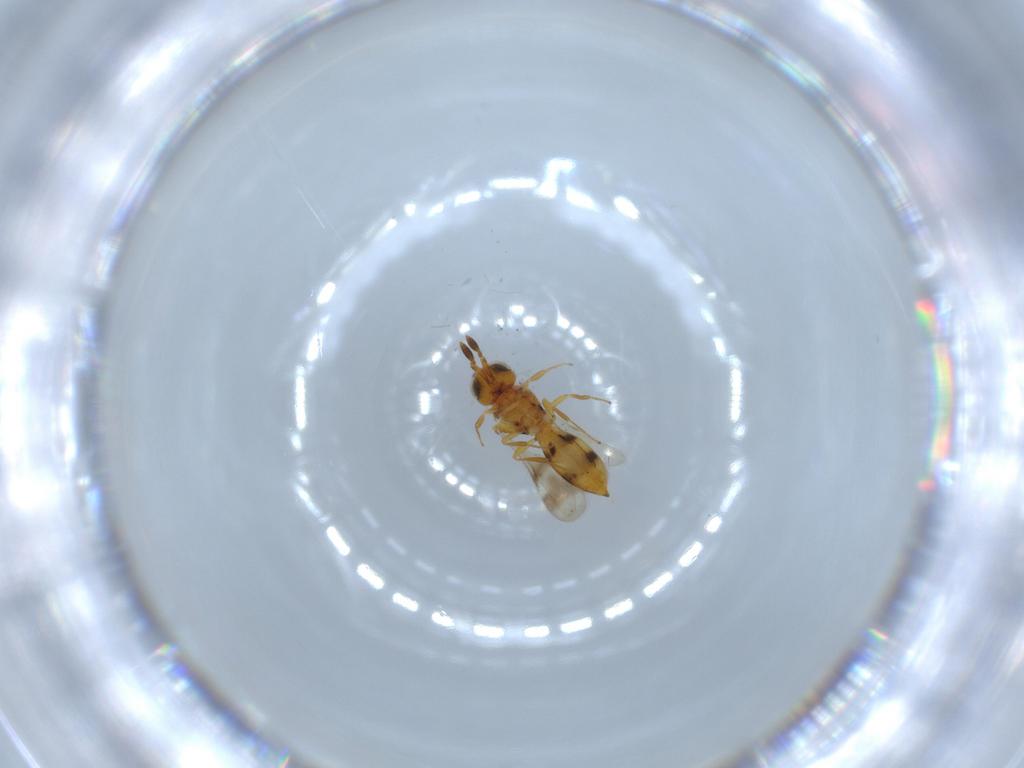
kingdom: Animalia
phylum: Arthropoda
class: Insecta
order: Hymenoptera
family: Scelionidae
